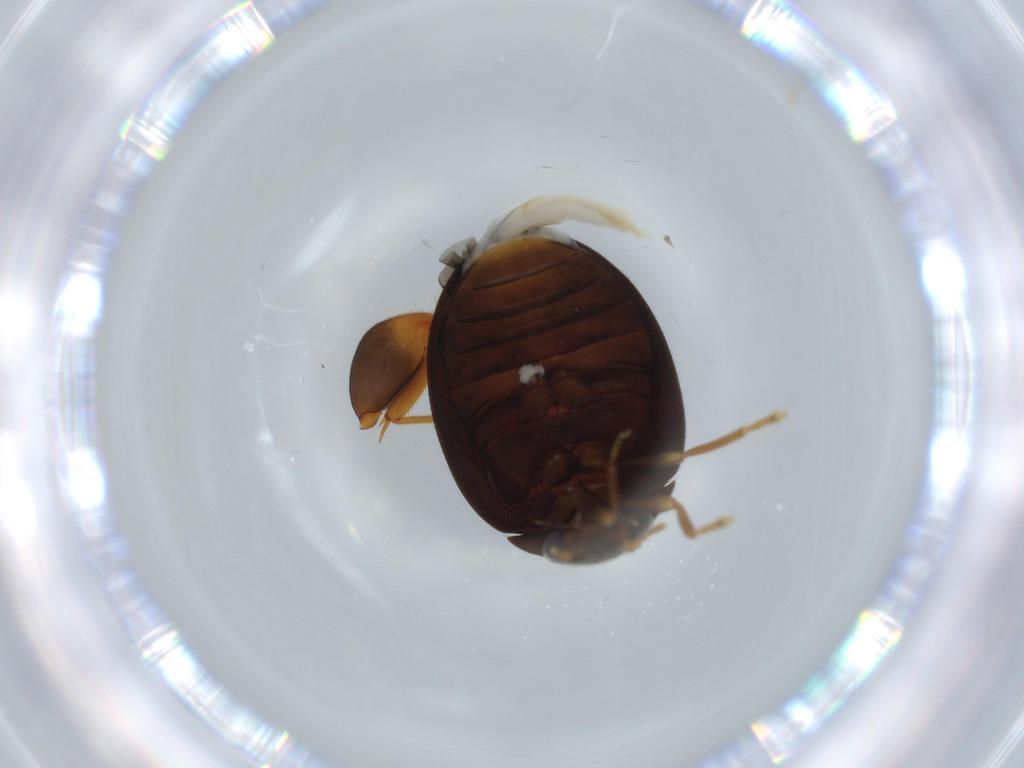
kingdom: Animalia
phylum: Arthropoda
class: Insecta
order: Coleoptera
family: Scirtidae
